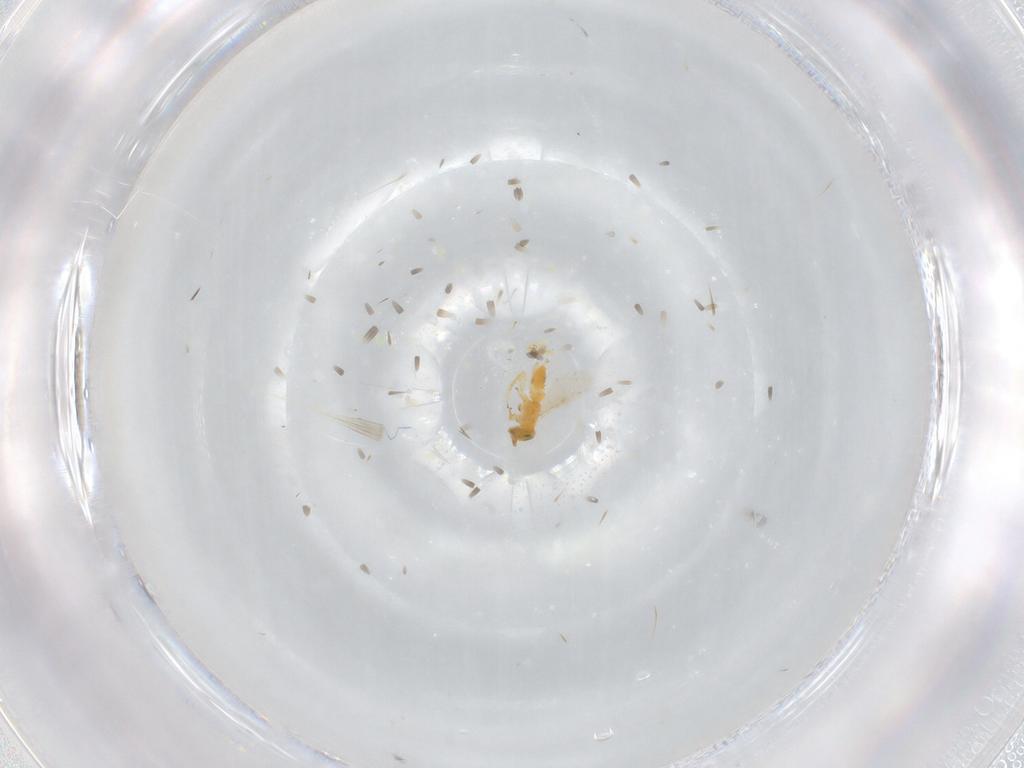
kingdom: Animalia
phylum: Arthropoda
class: Insecta
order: Hymenoptera
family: Encyrtidae
